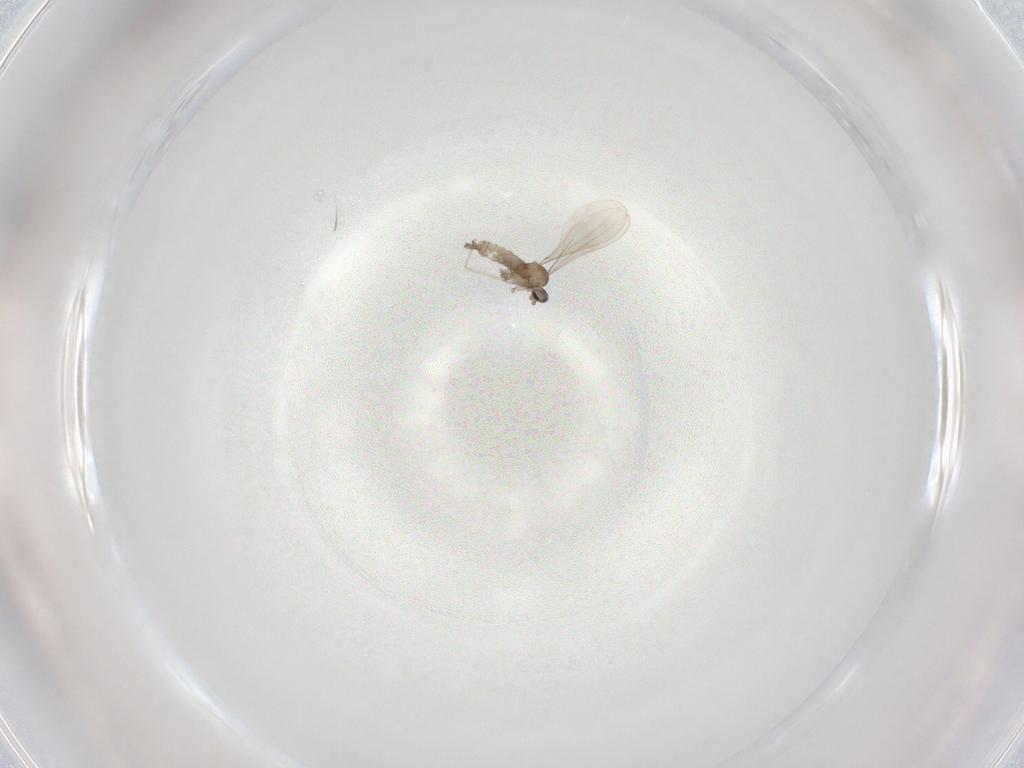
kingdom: Animalia
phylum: Arthropoda
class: Insecta
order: Diptera
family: Cecidomyiidae
